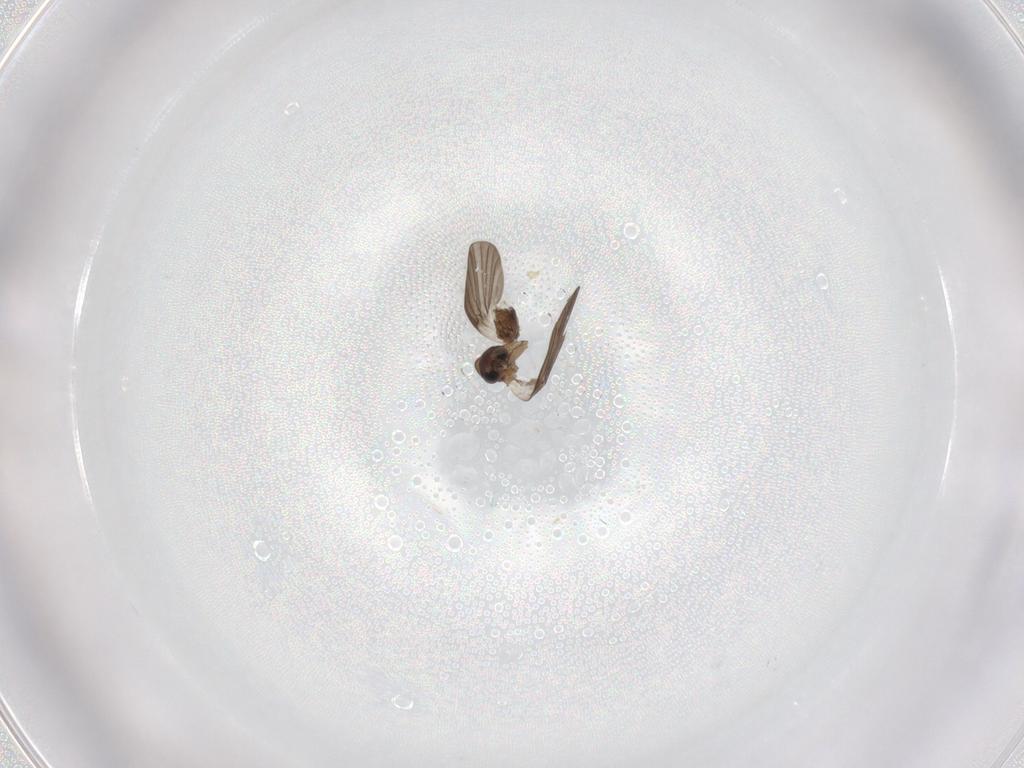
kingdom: Animalia
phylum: Arthropoda
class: Insecta
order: Diptera
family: Psychodidae
